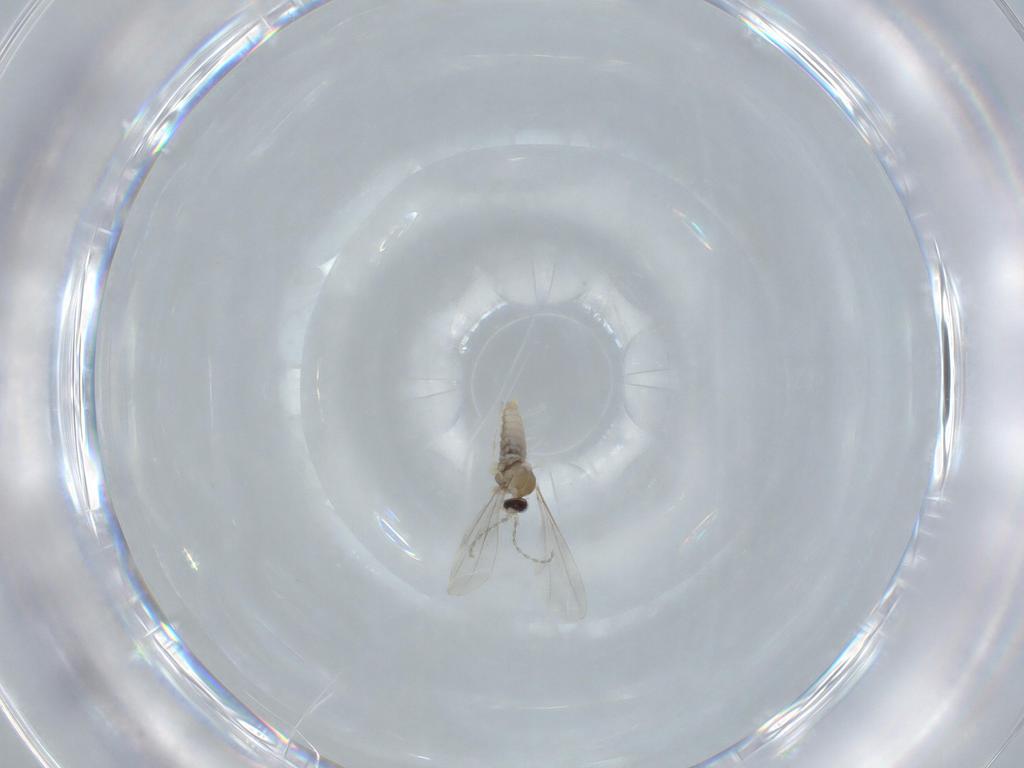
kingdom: Animalia
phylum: Arthropoda
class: Insecta
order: Diptera
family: Cecidomyiidae
